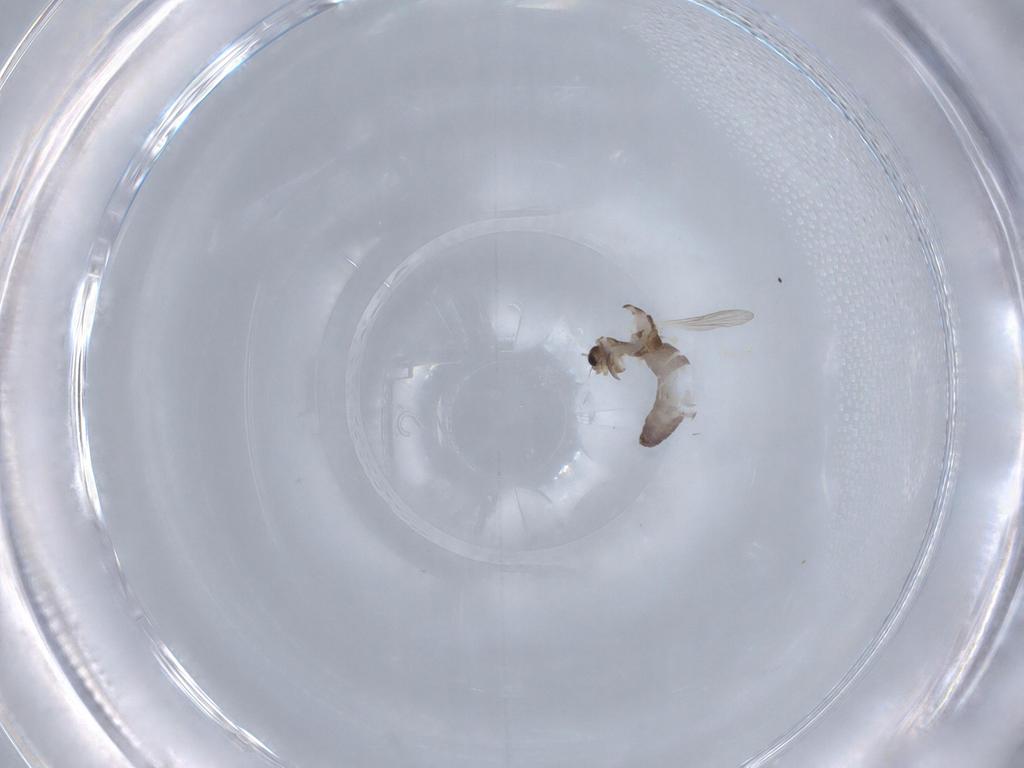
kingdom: Animalia
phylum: Arthropoda
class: Insecta
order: Diptera
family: Chironomidae
